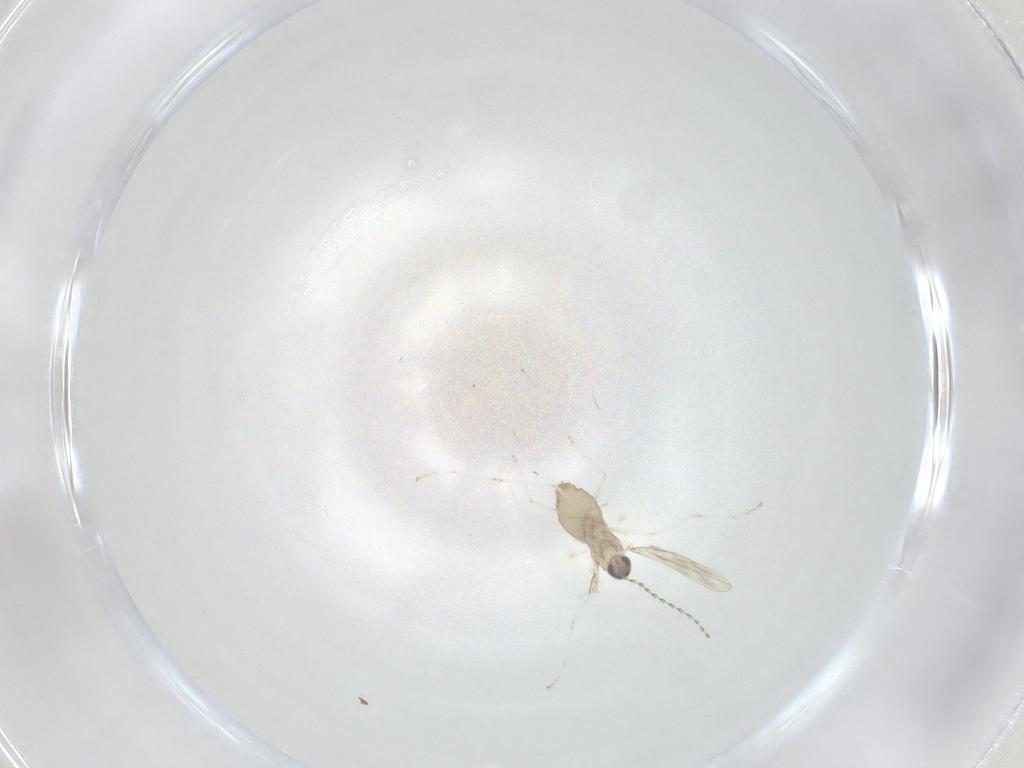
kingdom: Animalia
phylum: Arthropoda
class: Insecta
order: Diptera
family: Cecidomyiidae
